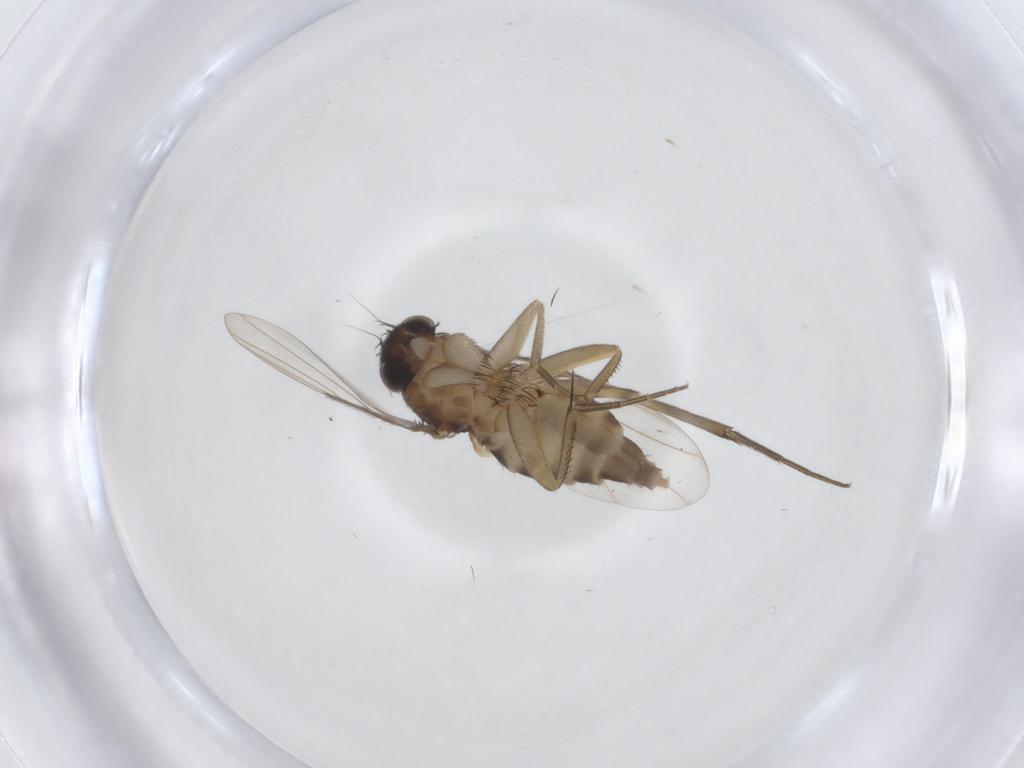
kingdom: Animalia
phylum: Arthropoda
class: Insecta
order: Diptera
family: Phoridae
